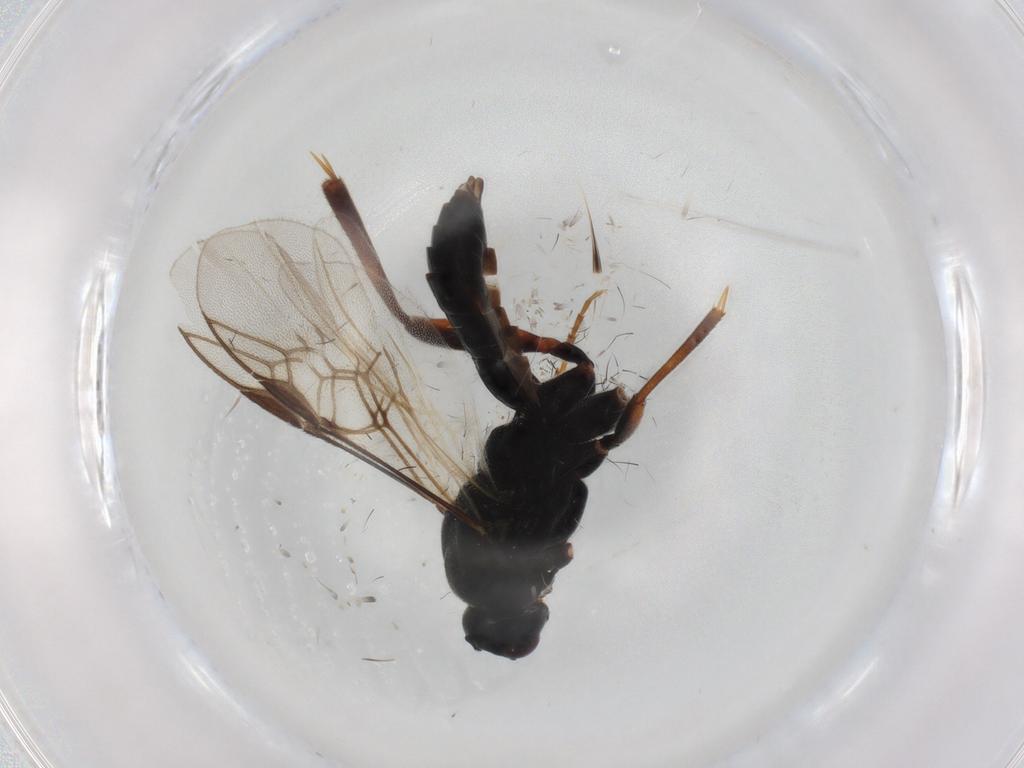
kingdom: Animalia
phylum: Arthropoda
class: Insecta
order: Hymenoptera
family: Braconidae
